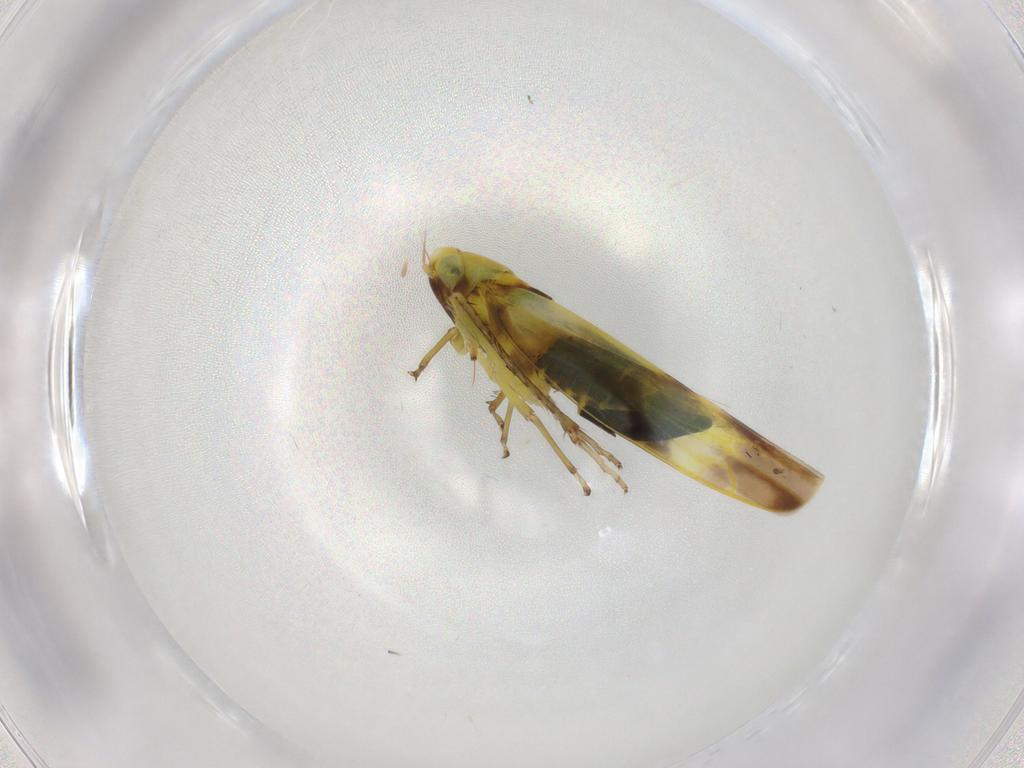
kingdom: Animalia
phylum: Arthropoda
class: Insecta
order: Hemiptera
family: Cicadellidae
